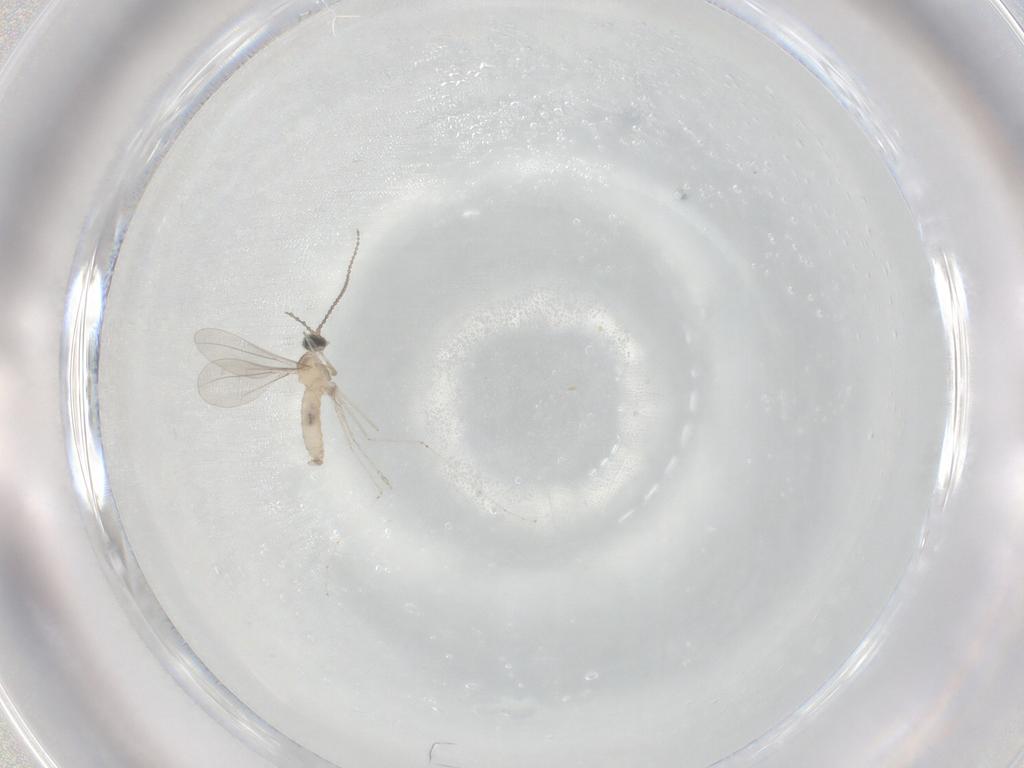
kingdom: Animalia
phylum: Arthropoda
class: Insecta
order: Diptera
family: Cecidomyiidae
